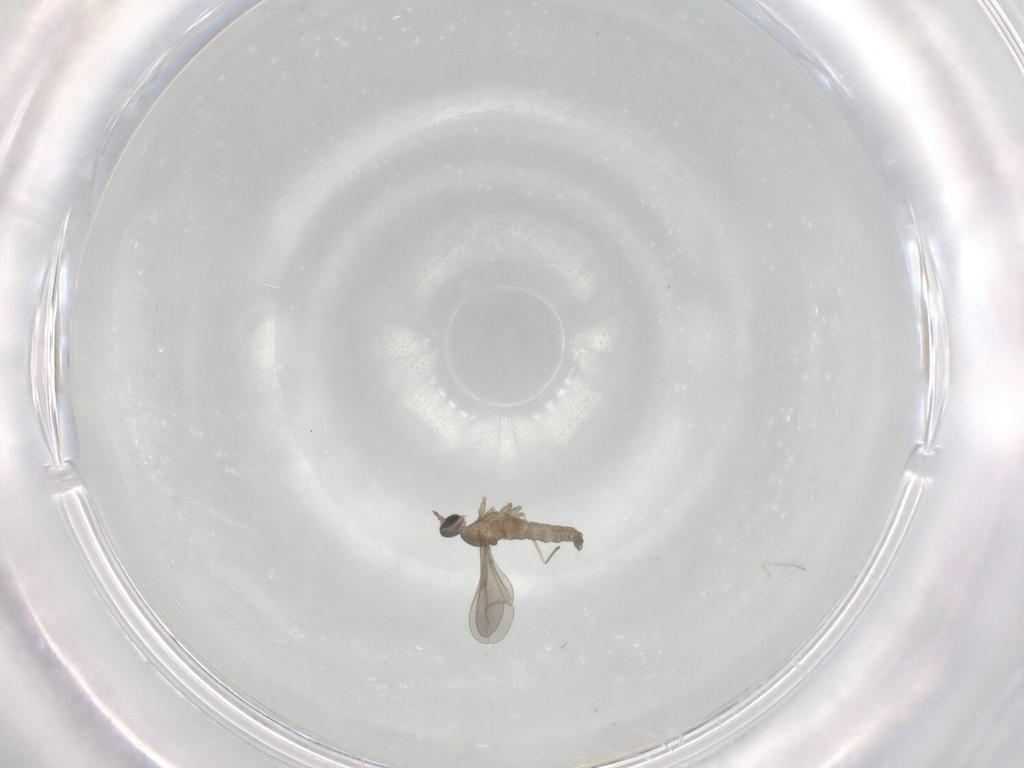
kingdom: Animalia
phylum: Arthropoda
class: Insecta
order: Diptera
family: Cecidomyiidae
